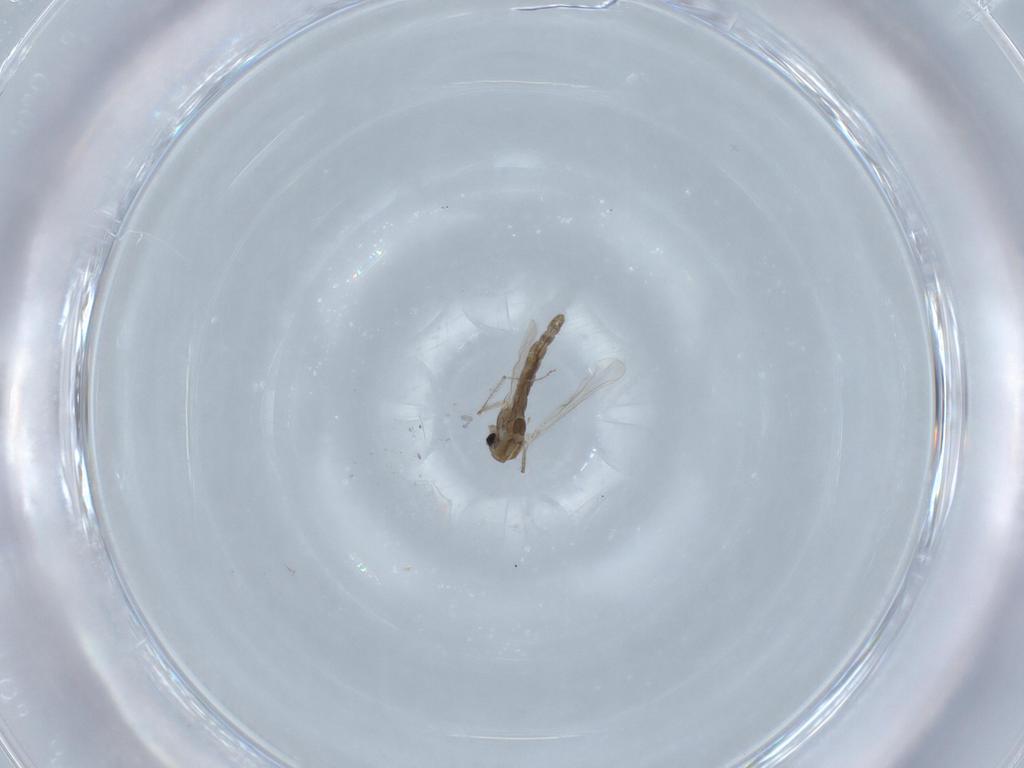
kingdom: Animalia
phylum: Arthropoda
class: Insecta
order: Diptera
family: Chironomidae
